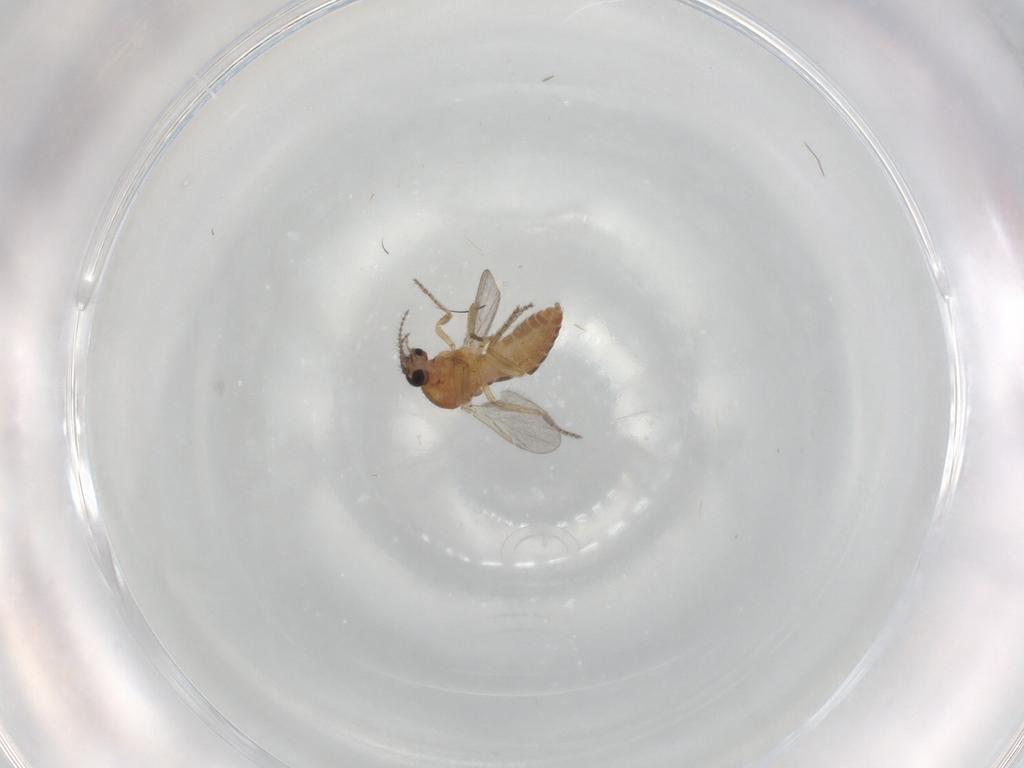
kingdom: Animalia
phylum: Arthropoda
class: Insecta
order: Diptera
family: Ceratopogonidae
